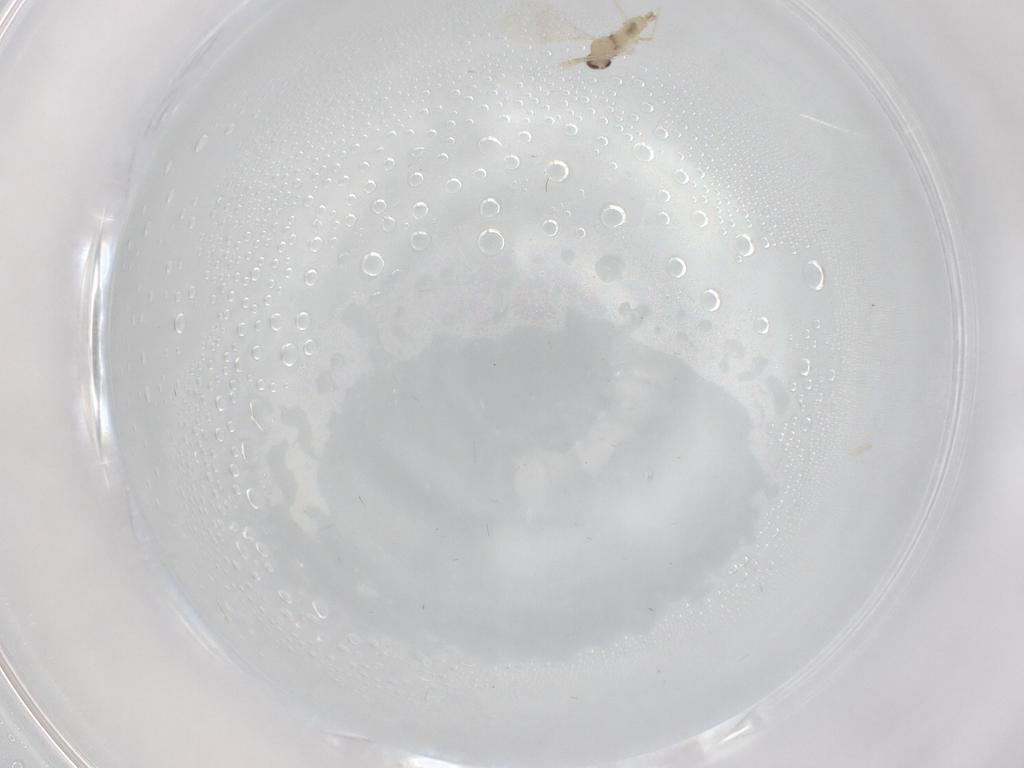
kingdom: Animalia
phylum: Arthropoda
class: Insecta
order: Diptera
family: Cecidomyiidae
